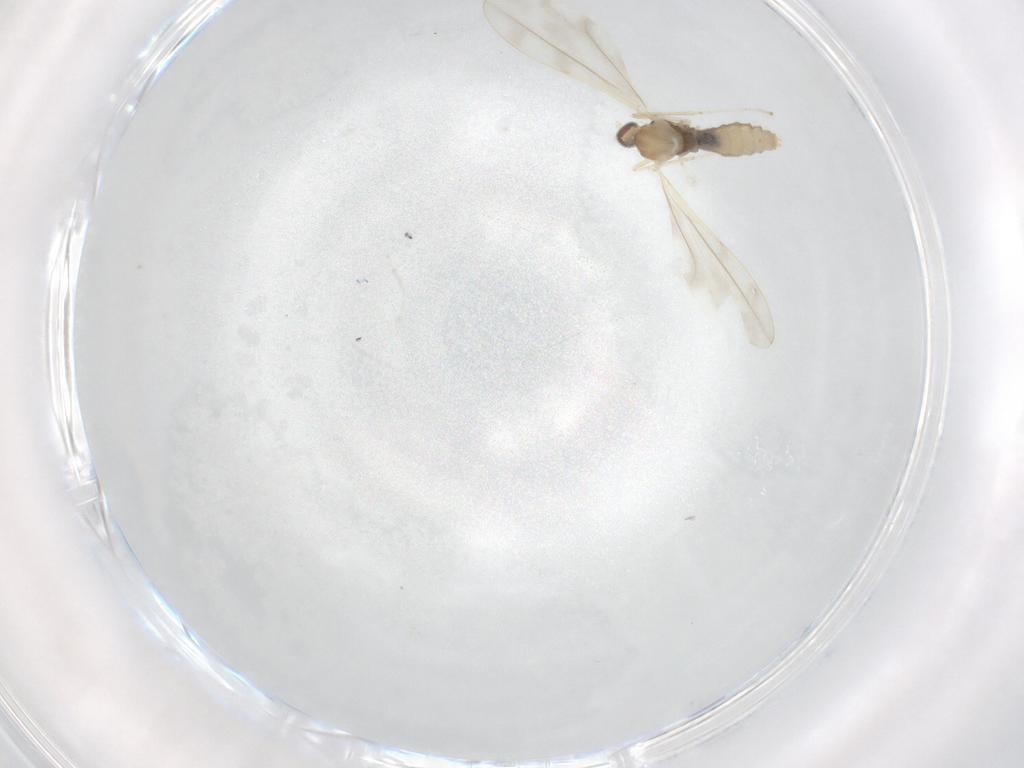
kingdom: Animalia
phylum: Arthropoda
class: Insecta
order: Diptera
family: Cecidomyiidae
